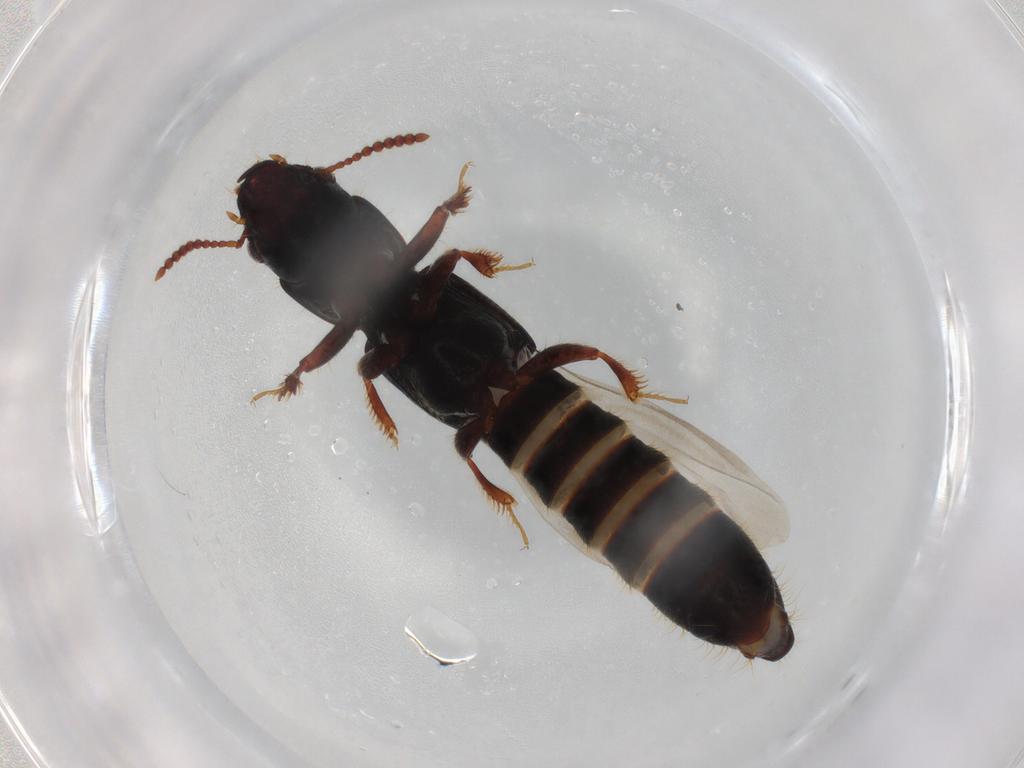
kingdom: Animalia
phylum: Arthropoda
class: Insecta
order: Coleoptera
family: Staphylinidae
